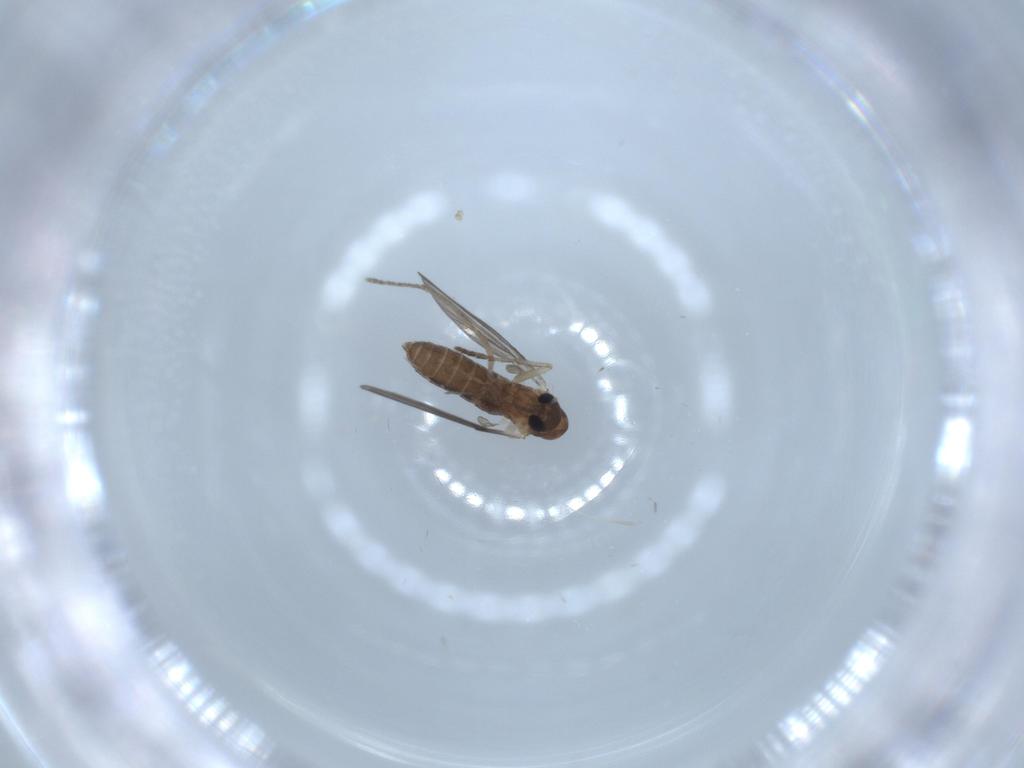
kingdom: Animalia
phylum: Arthropoda
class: Insecta
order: Diptera
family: Psychodidae
